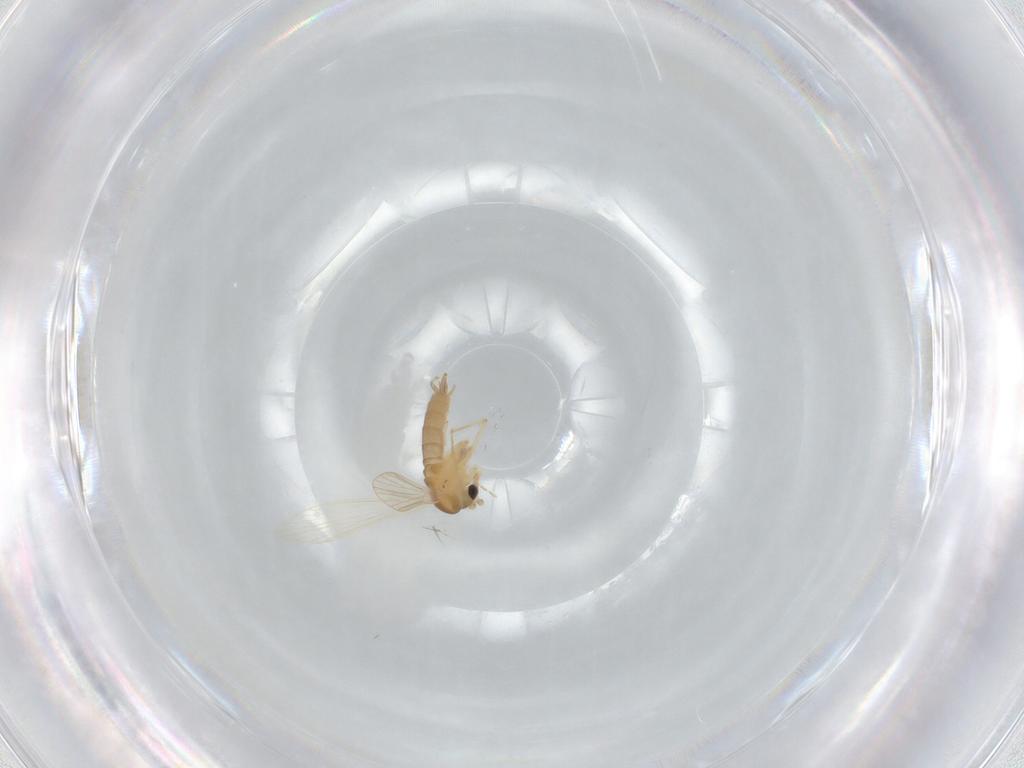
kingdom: Animalia
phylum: Arthropoda
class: Insecta
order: Diptera
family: Psychodidae
